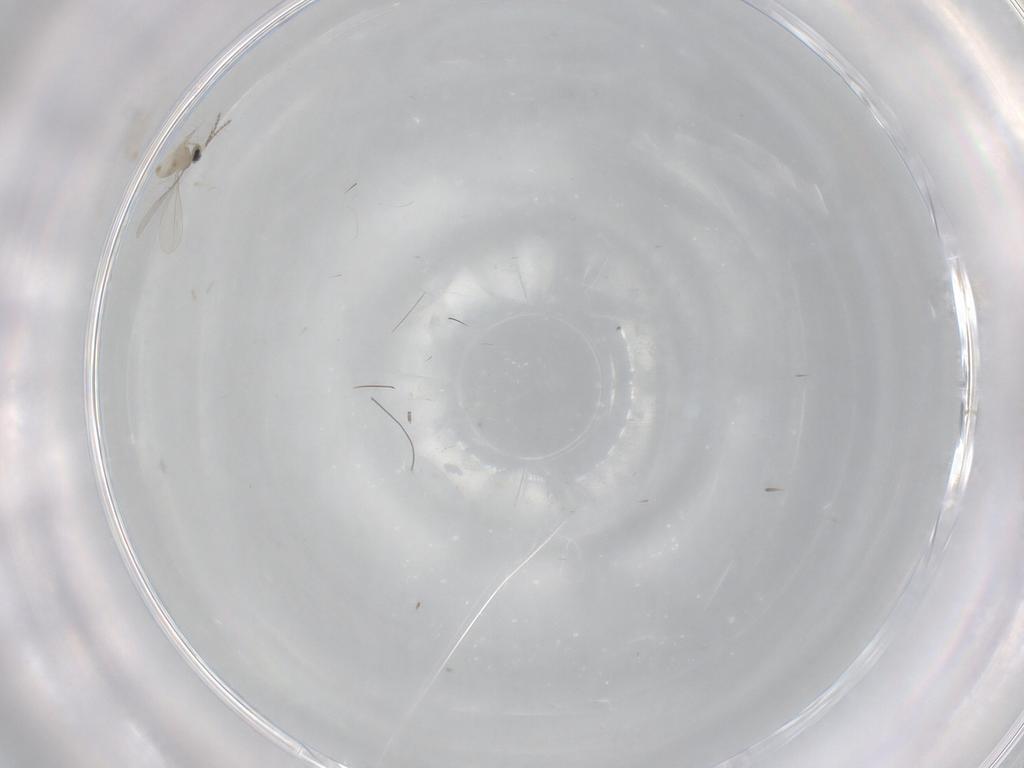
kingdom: Animalia
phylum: Arthropoda
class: Insecta
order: Diptera
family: Cecidomyiidae
